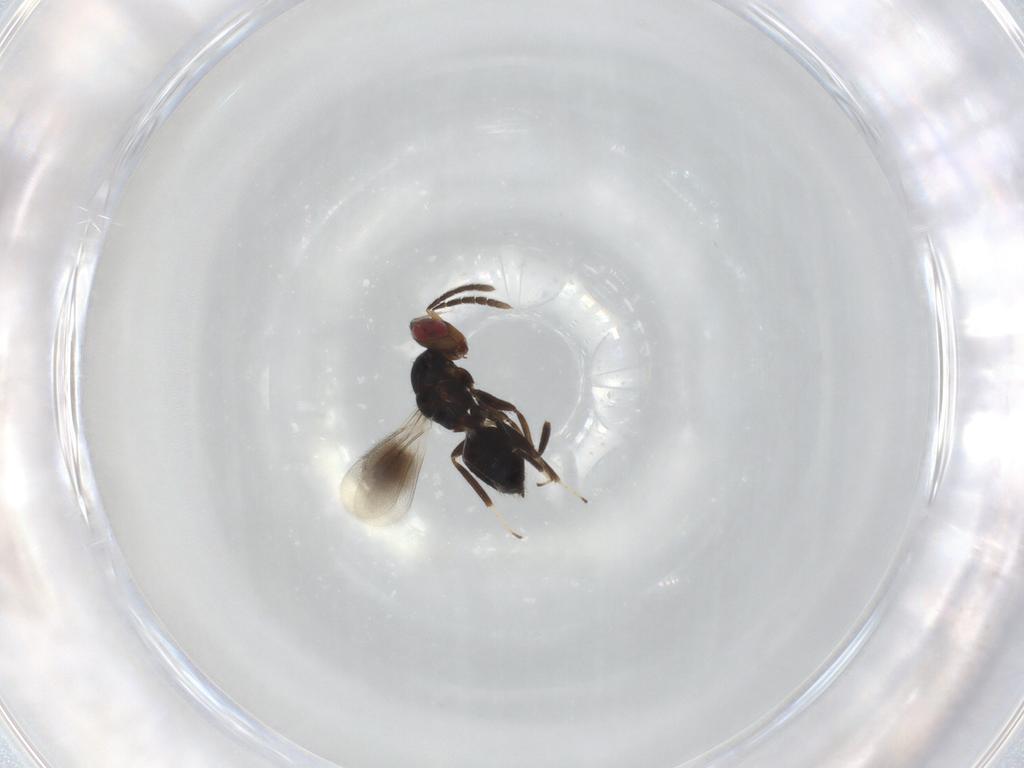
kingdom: Animalia
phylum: Arthropoda
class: Insecta
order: Hymenoptera
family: Eulophidae
